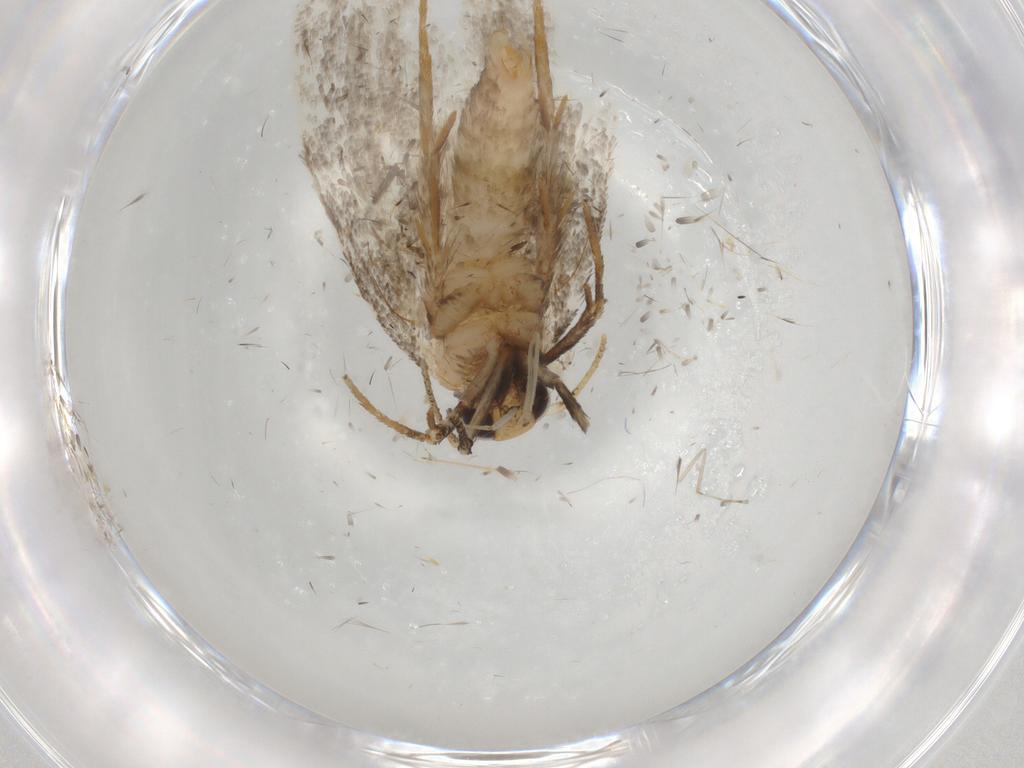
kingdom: Animalia
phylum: Arthropoda
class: Insecta
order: Lepidoptera
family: Oecophoridae
